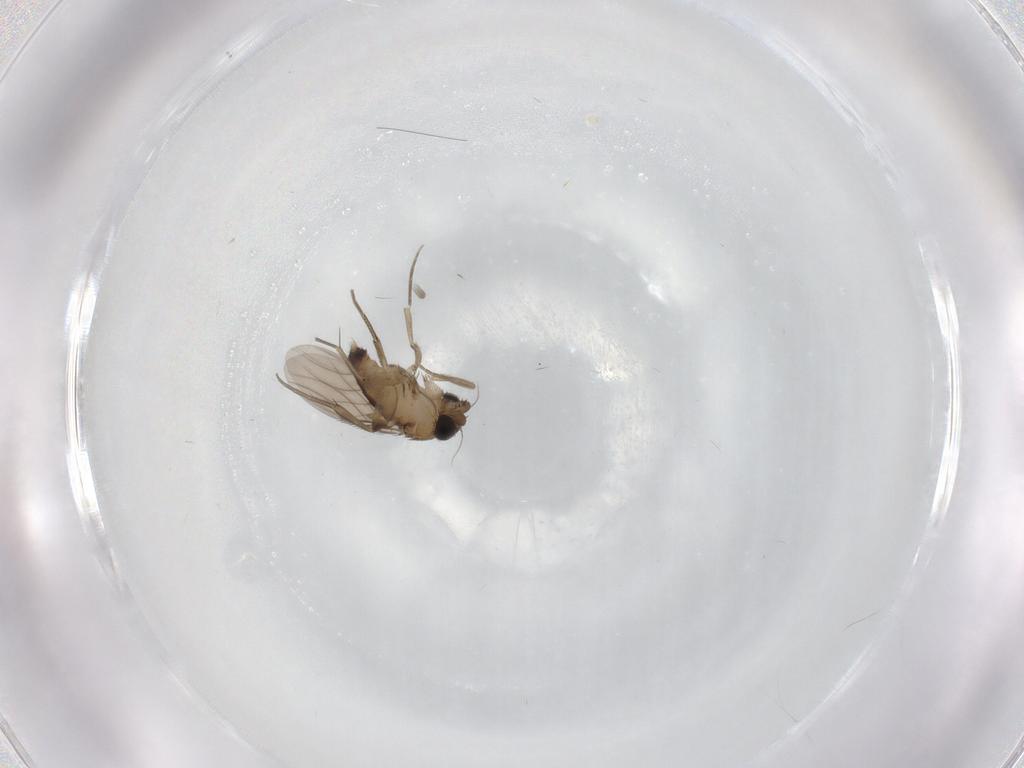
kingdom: Animalia
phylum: Arthropoda
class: Insecta
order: Diptera
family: Phoridae
